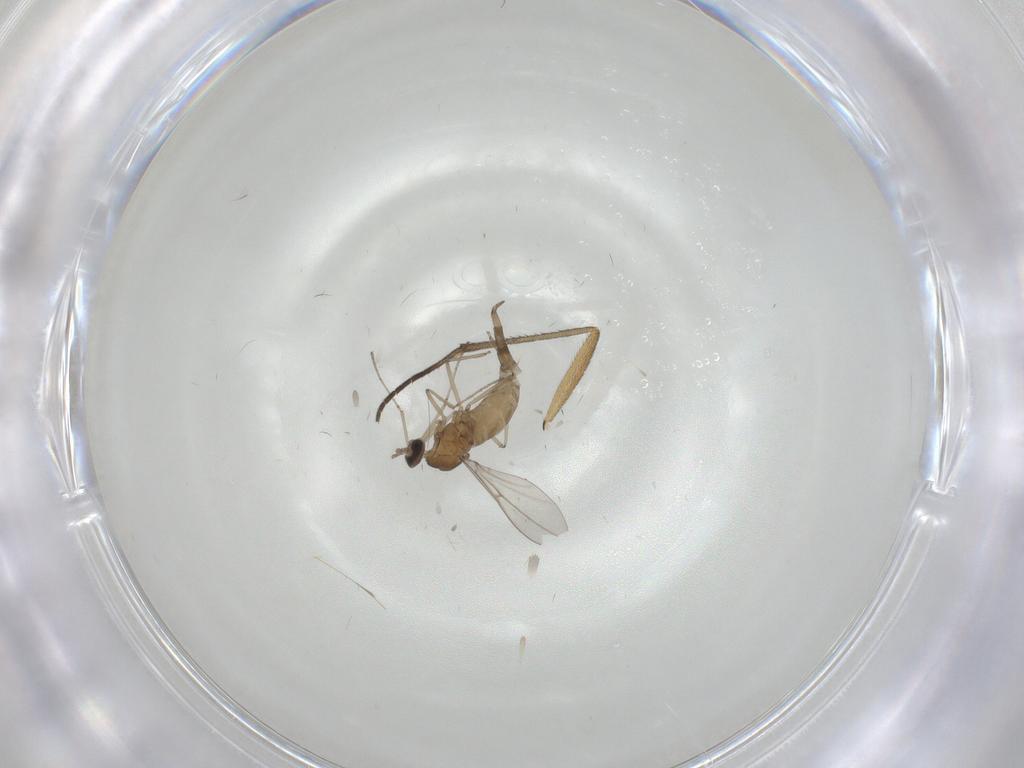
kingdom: Animalia
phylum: Arthropoda
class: Insecta
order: Diptera
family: Cecidomyiidae
